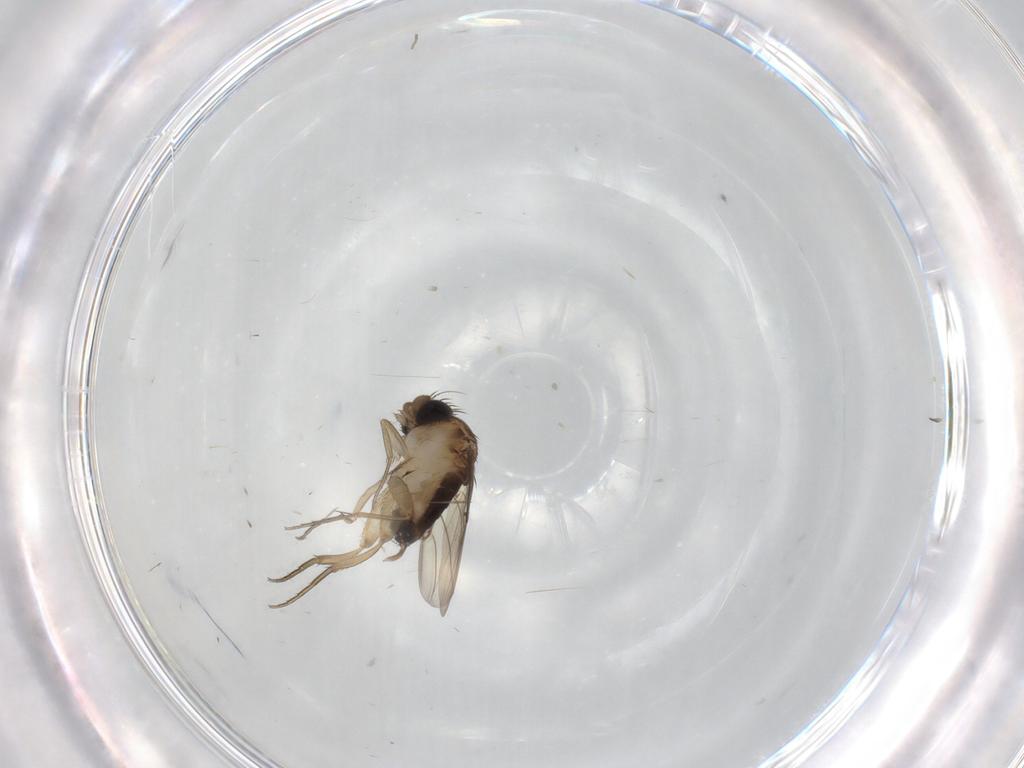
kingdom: Animalia
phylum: Arthropoda
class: Insecta
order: Diptera
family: Phoridae
